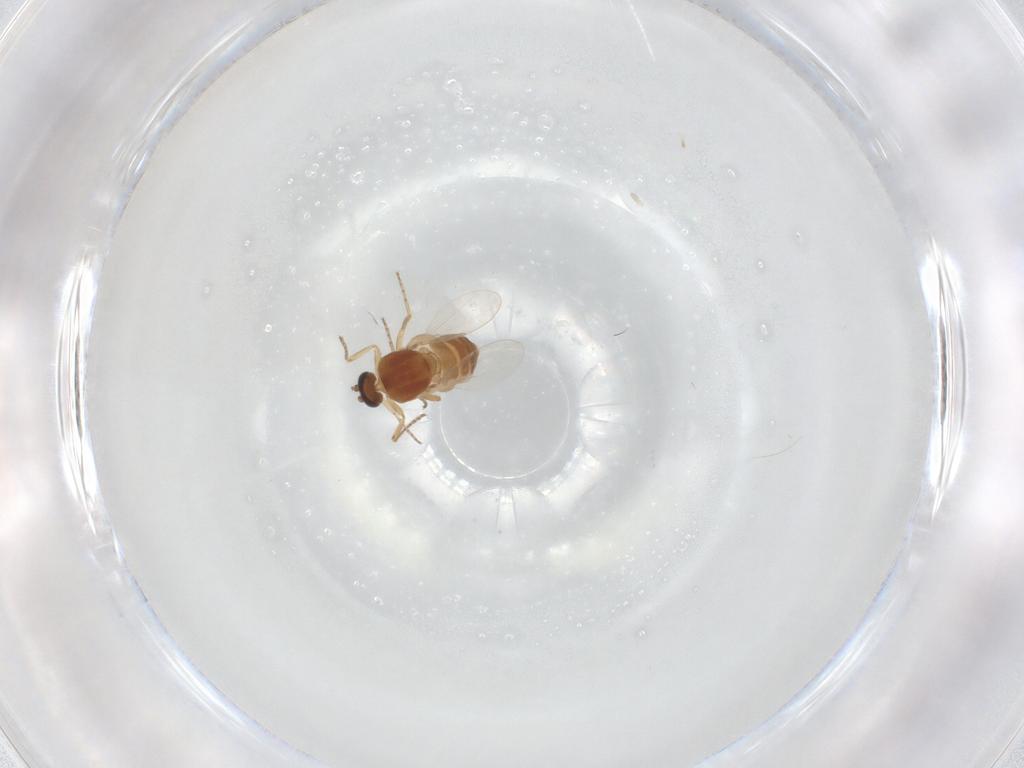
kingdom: Animalia
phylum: Arthropoda
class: Insecta
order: Diptera
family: Ceratopogonidae
